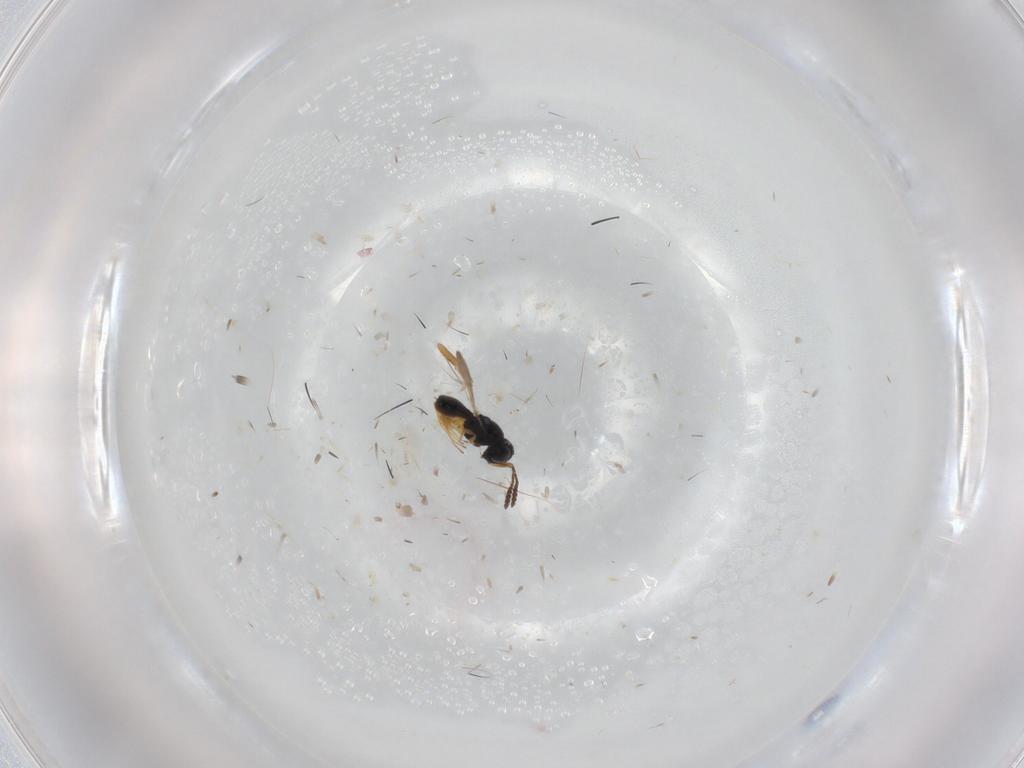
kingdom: Animalia
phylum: Arthropoda
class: Insecta
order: Hymenoptera
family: Scelionidae
